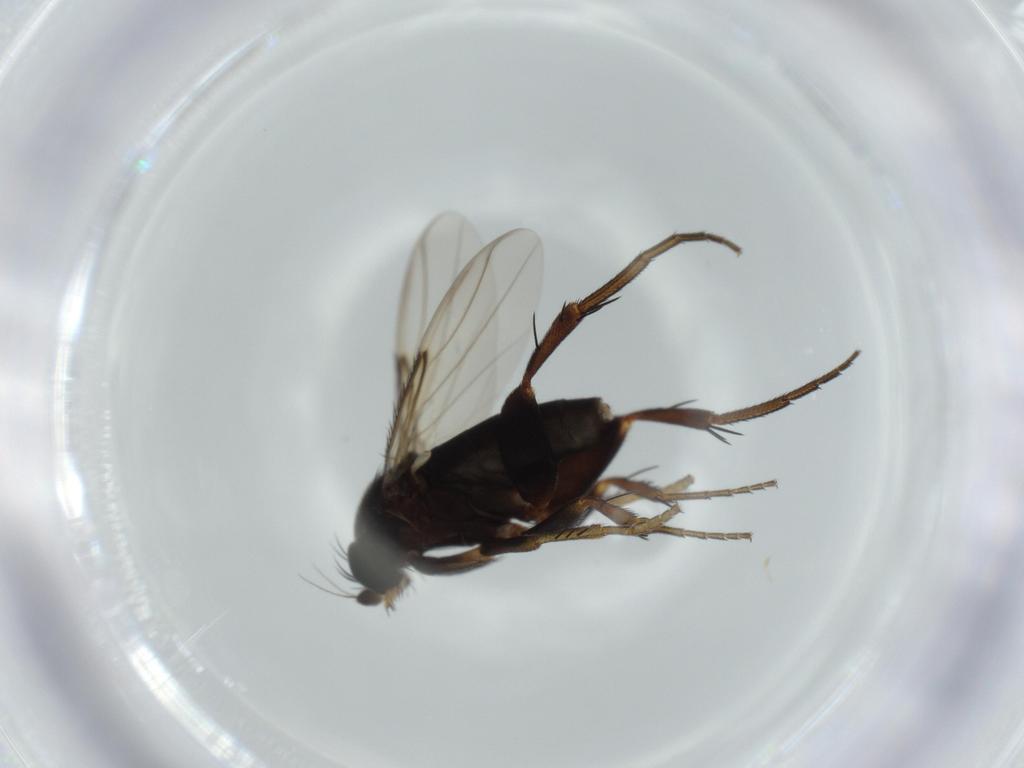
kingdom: Animalia
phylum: Arthropoda
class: Insecta
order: Diptera
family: Phoridae
